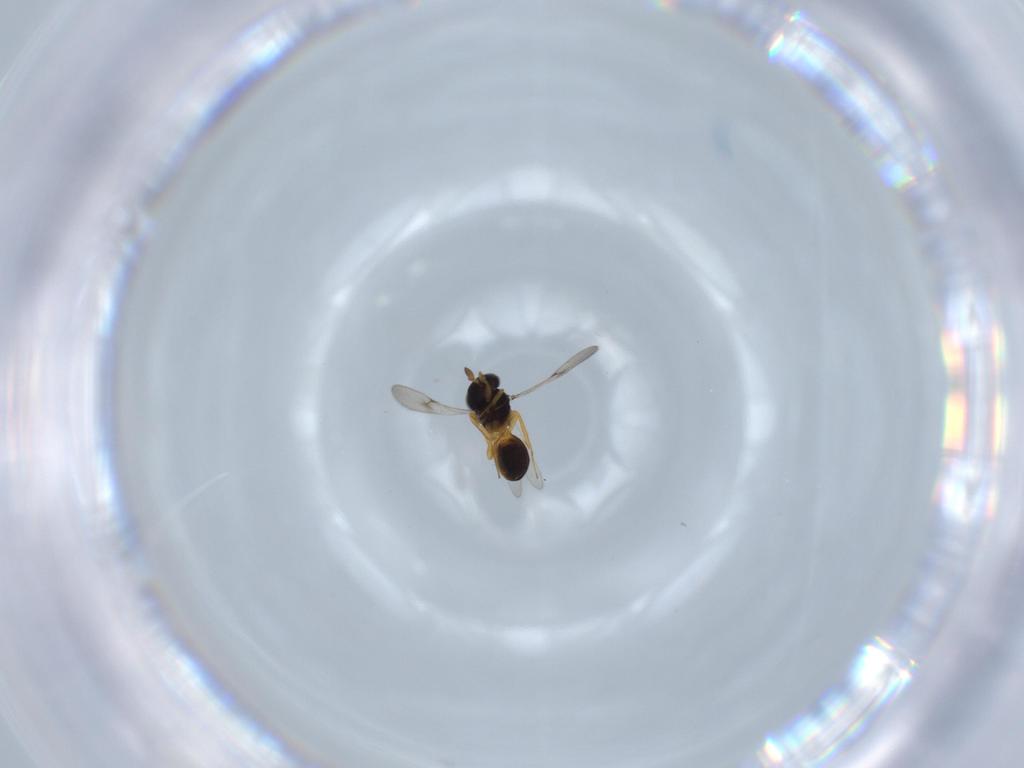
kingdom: Animalia
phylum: Arthropoda
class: Insecta
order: Hymenoptera
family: Scelionidae
